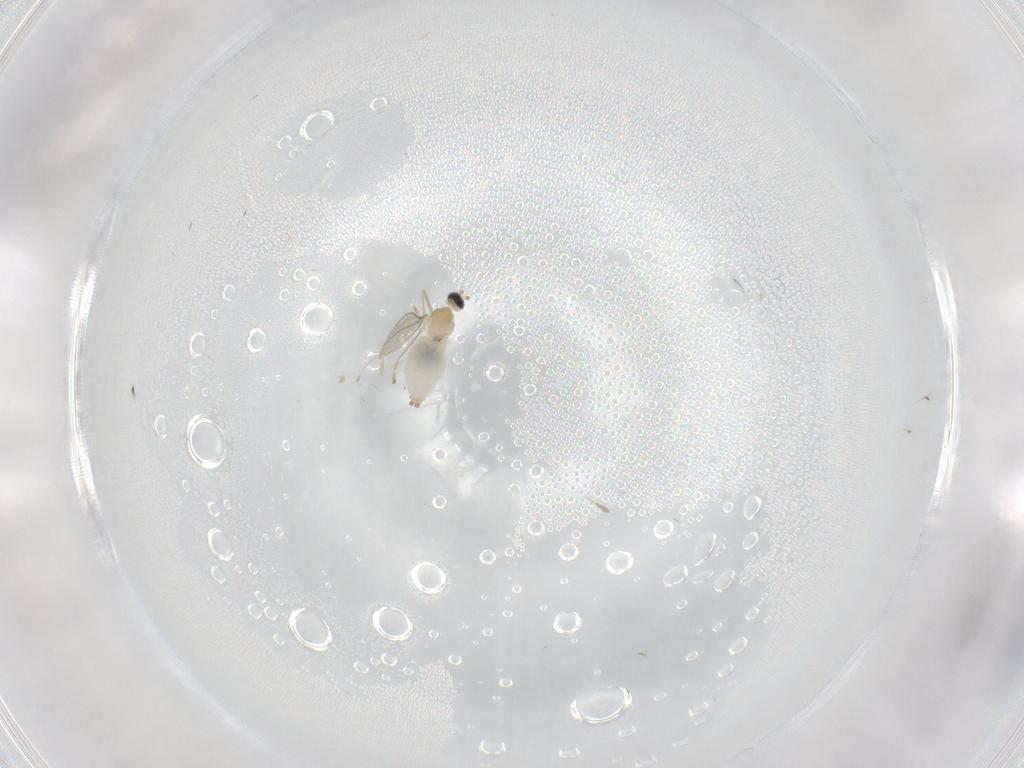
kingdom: Animalia
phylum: Arthropoda
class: Insecta
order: Diptera
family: Cecidomyiidae
